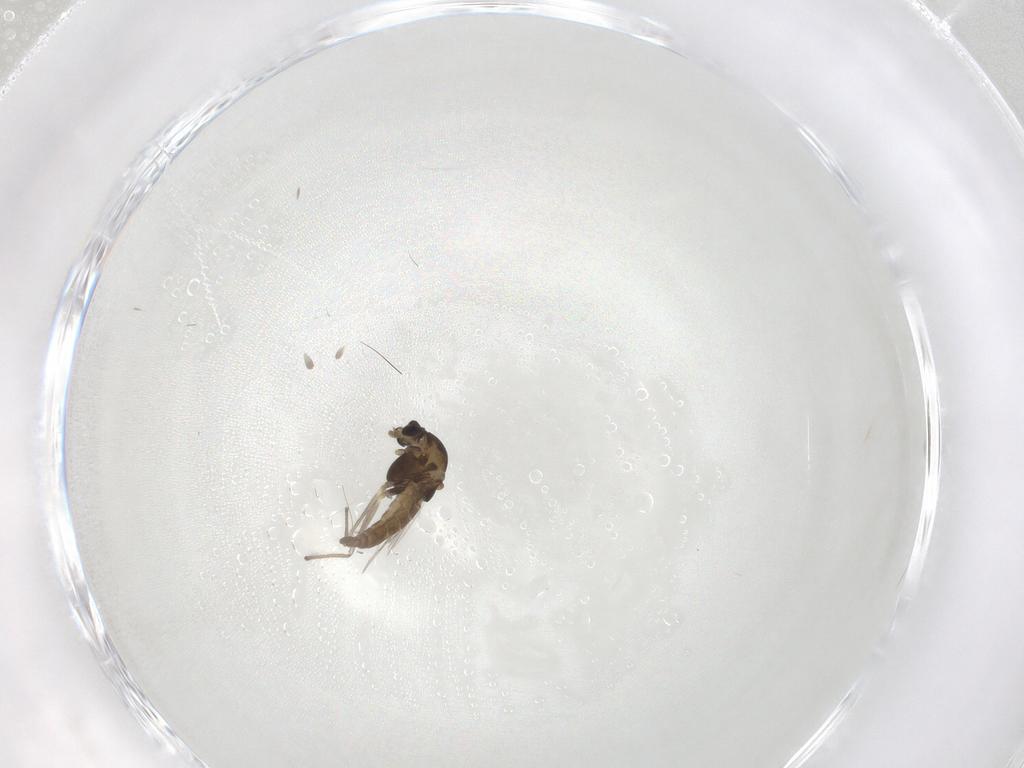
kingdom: Animalia
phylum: Arthropoda
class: Insecta
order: Diptera
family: Chironomidae
